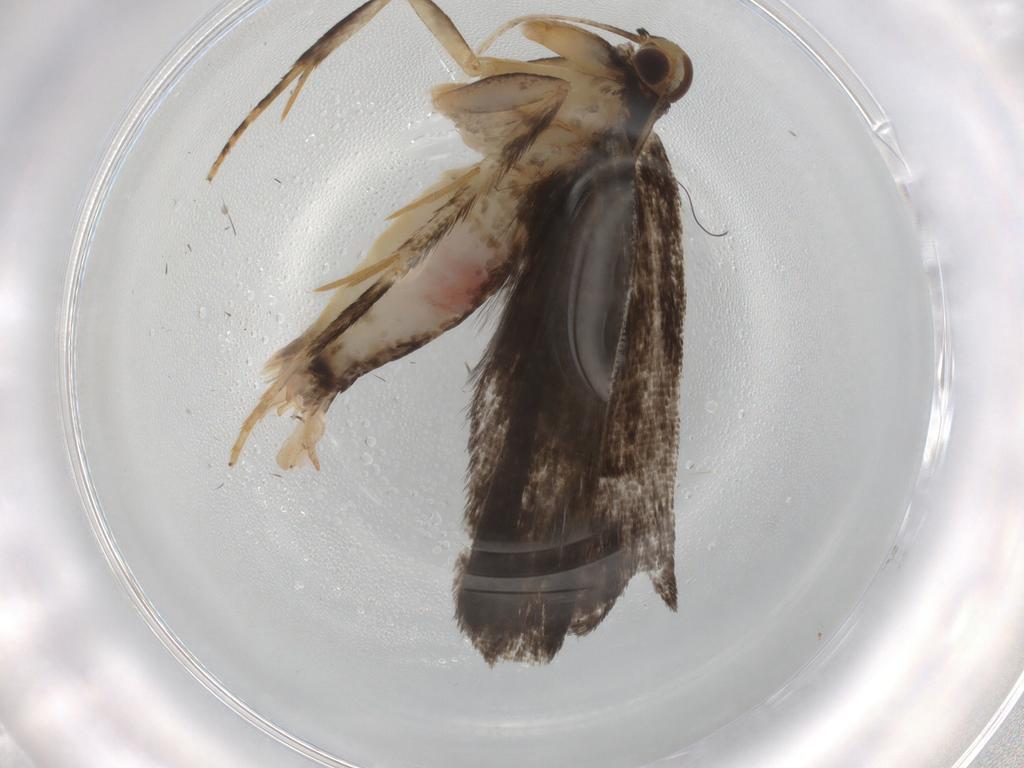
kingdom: Animalia
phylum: Arthropoda
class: Insecta
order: Lepidoptera
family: Gelechiidae
